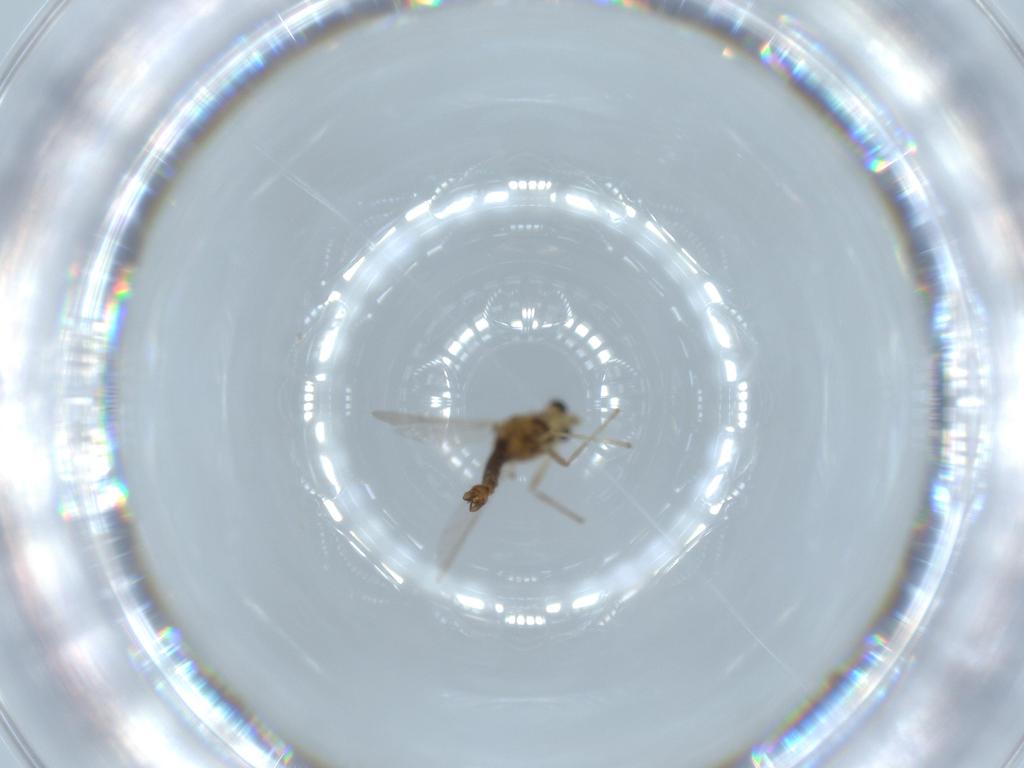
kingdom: Animalia
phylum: Arthropoda
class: Insecta
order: Diptera
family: Chironomidae
